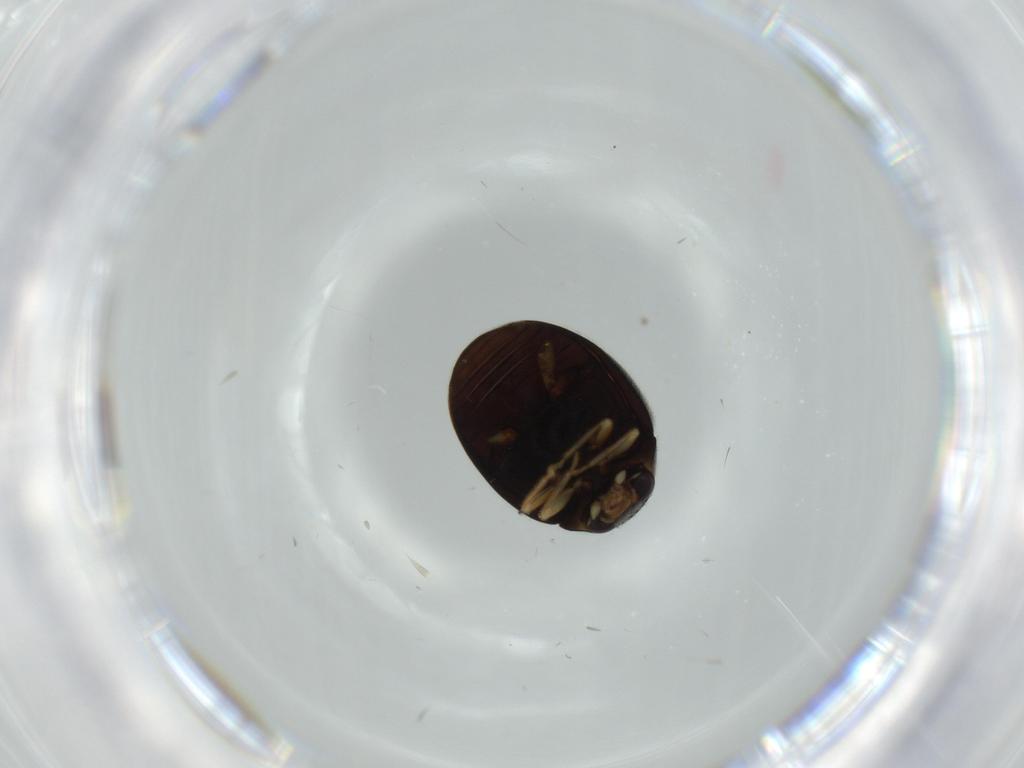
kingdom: Animalia
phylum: Arthropoda
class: Insecta
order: Coleoptera
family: Coccinellidae
